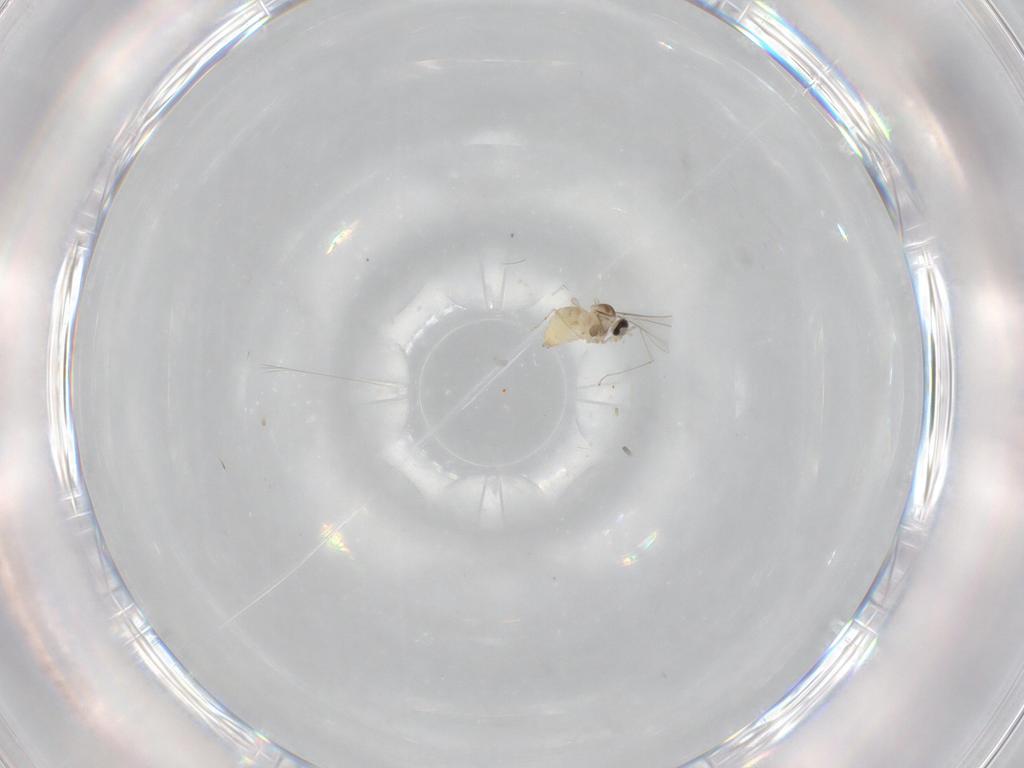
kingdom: Animalia
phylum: Arthropoda
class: Insecta
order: Diptera
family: Cecidomyiidae
